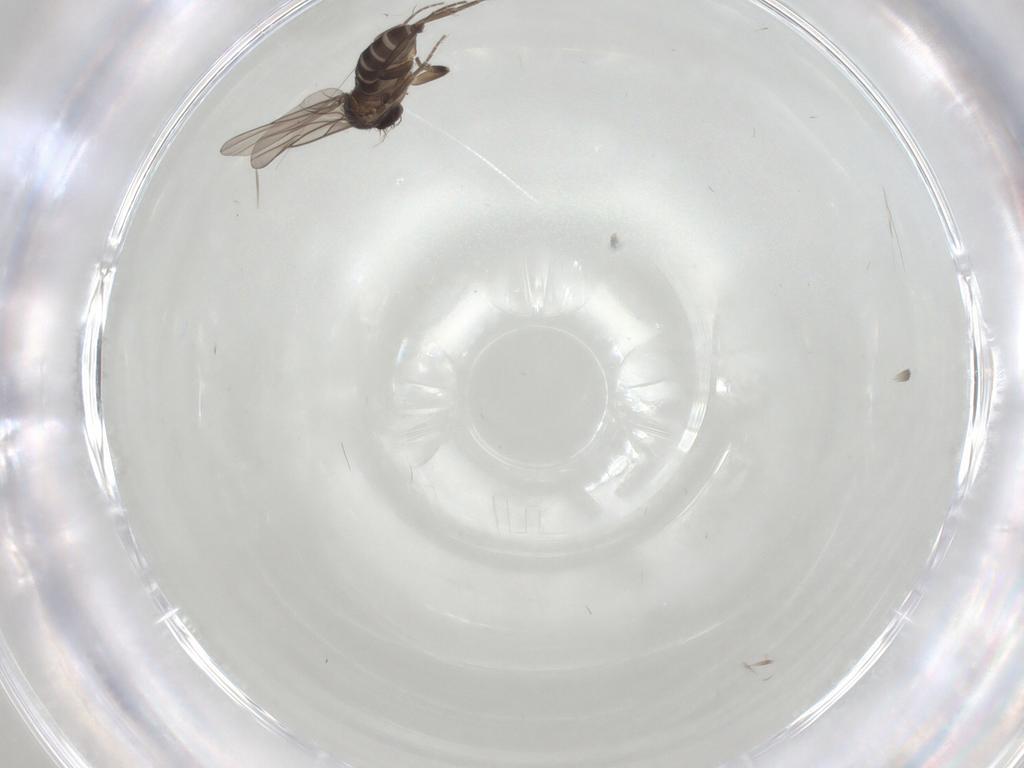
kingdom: Animalia
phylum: Arthropoda
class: Insecta
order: Diptera
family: Phoridae
